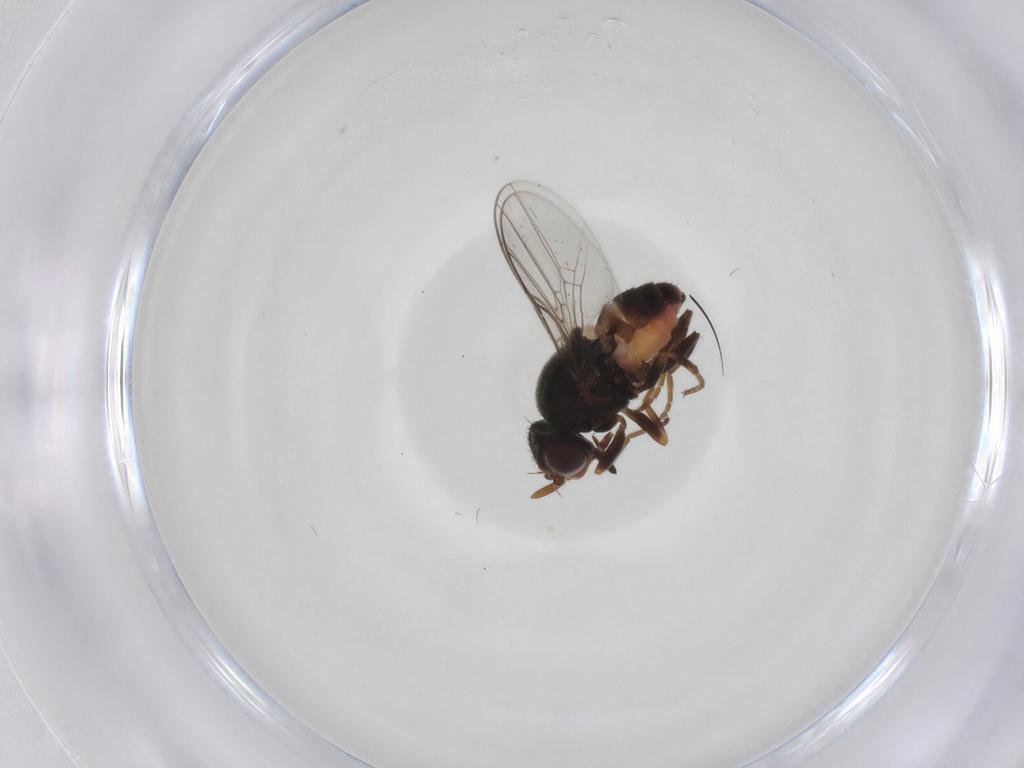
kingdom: Animalia
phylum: Arthropoda
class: Insecta
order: Diptera
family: Chloropidae
